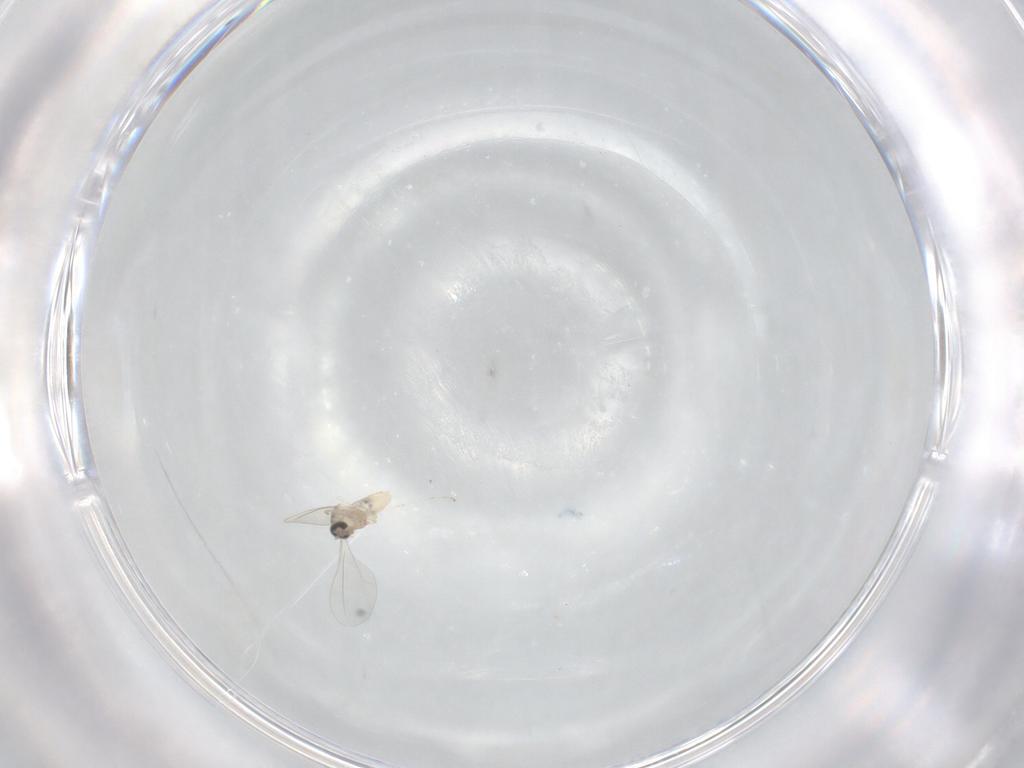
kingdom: Animalia
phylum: Arthropoda
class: Insecta
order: Diptera
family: Cecidomyiidae
